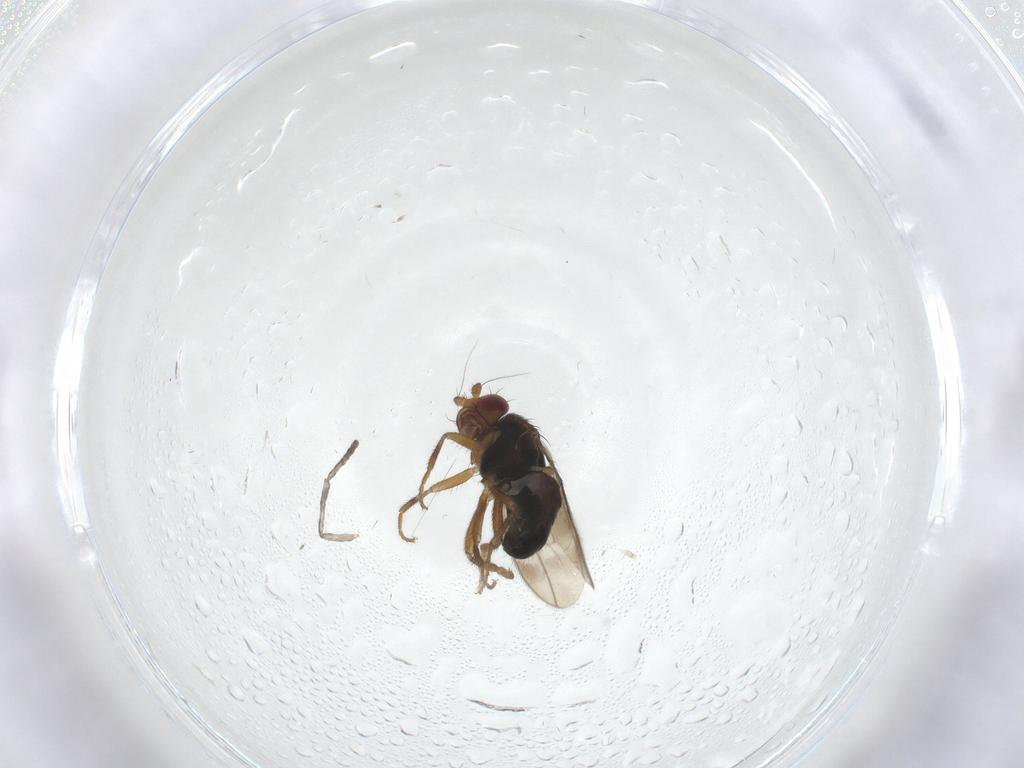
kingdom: Animalia
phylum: Arthropoda
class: Insecta
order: Diptera
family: Sphaeroceridae
